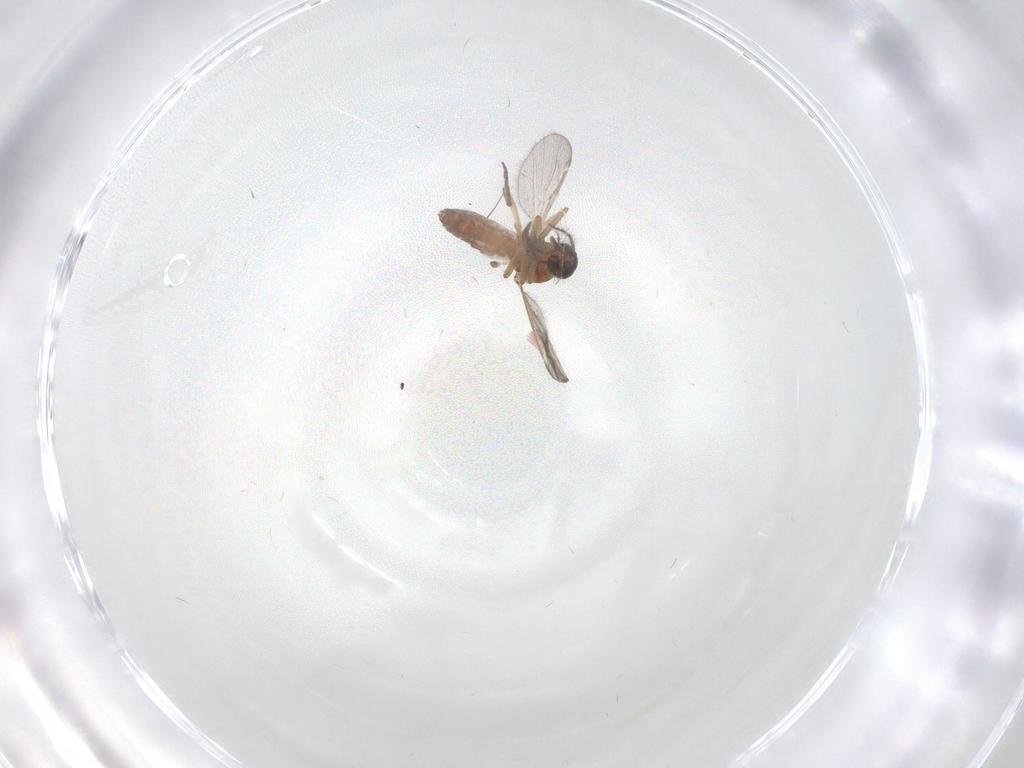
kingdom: Animalia
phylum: Arthropoda
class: Insecta
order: Diptera
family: Ceratopogonidae
